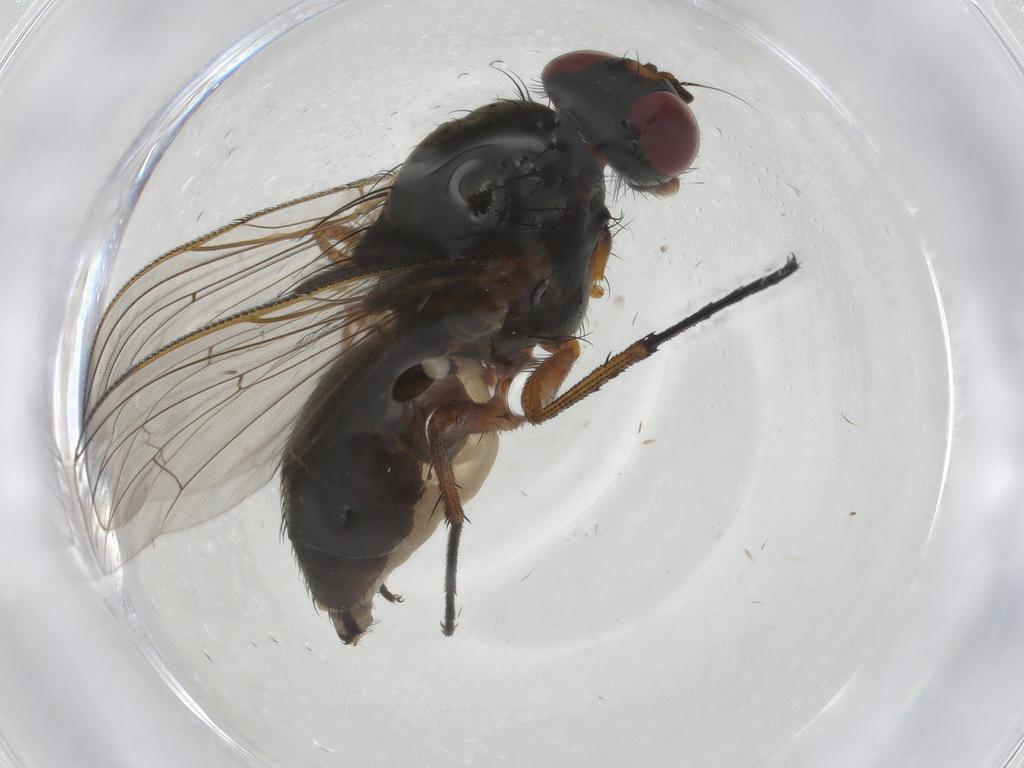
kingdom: Animalia
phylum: Arthropoda
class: Insecta
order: Diptera
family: Anthomyiidae
